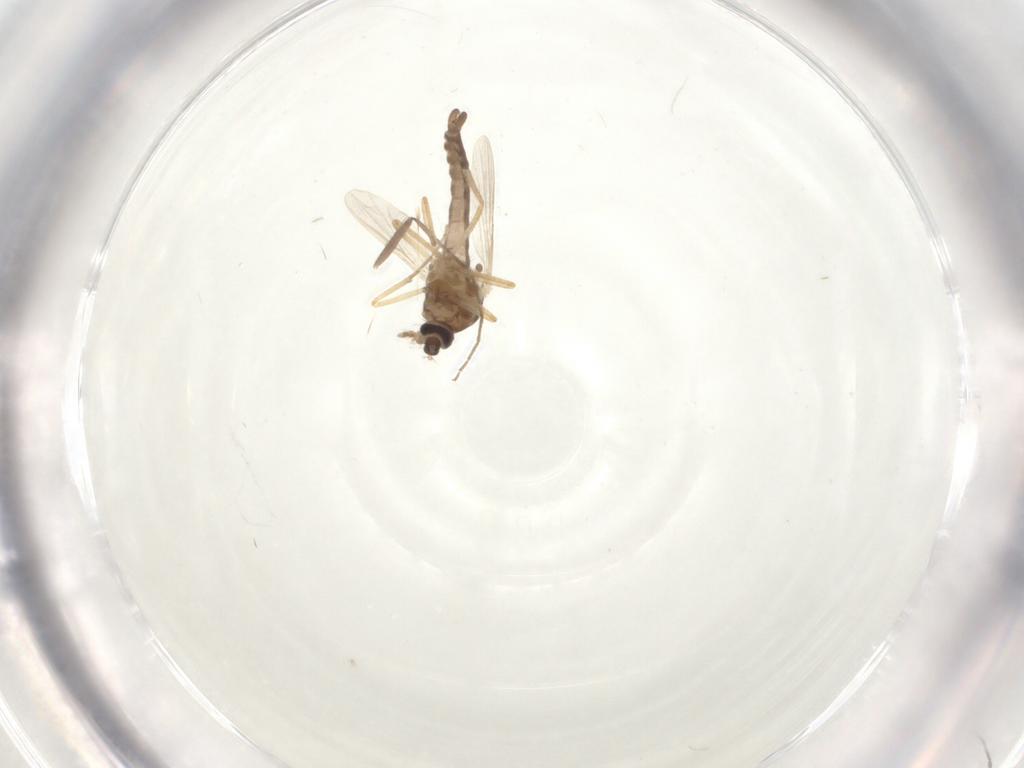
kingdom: Animalia
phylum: Arthropoda
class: Insecta
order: Diptera
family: Ceratopogonidae
